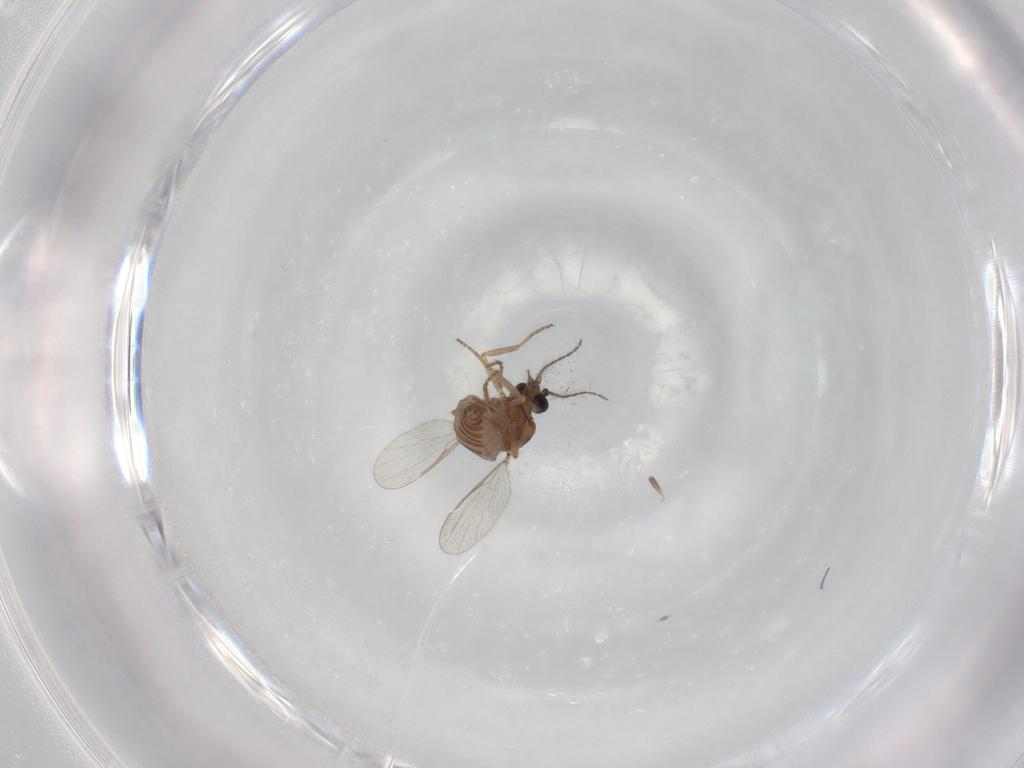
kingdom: Animalia
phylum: Arthropoda
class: Insecta
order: Diptera
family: Ceratopogonidae
